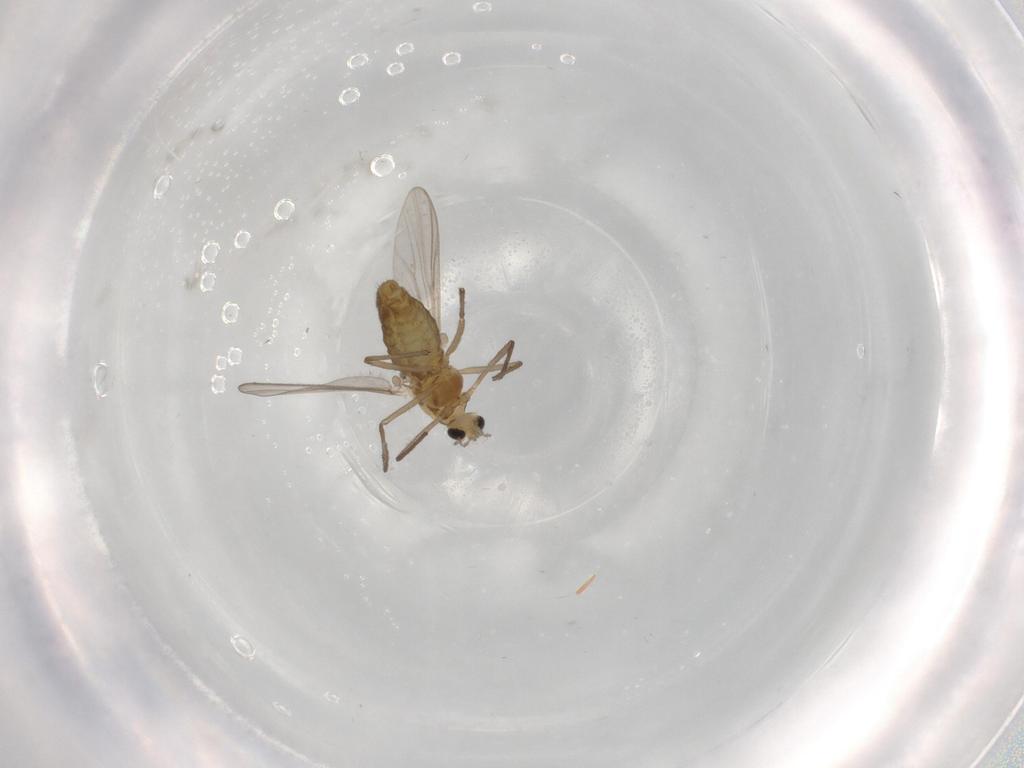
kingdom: Animalia
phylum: Arthropoda
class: Insecta
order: Diptera
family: Chironomidae
